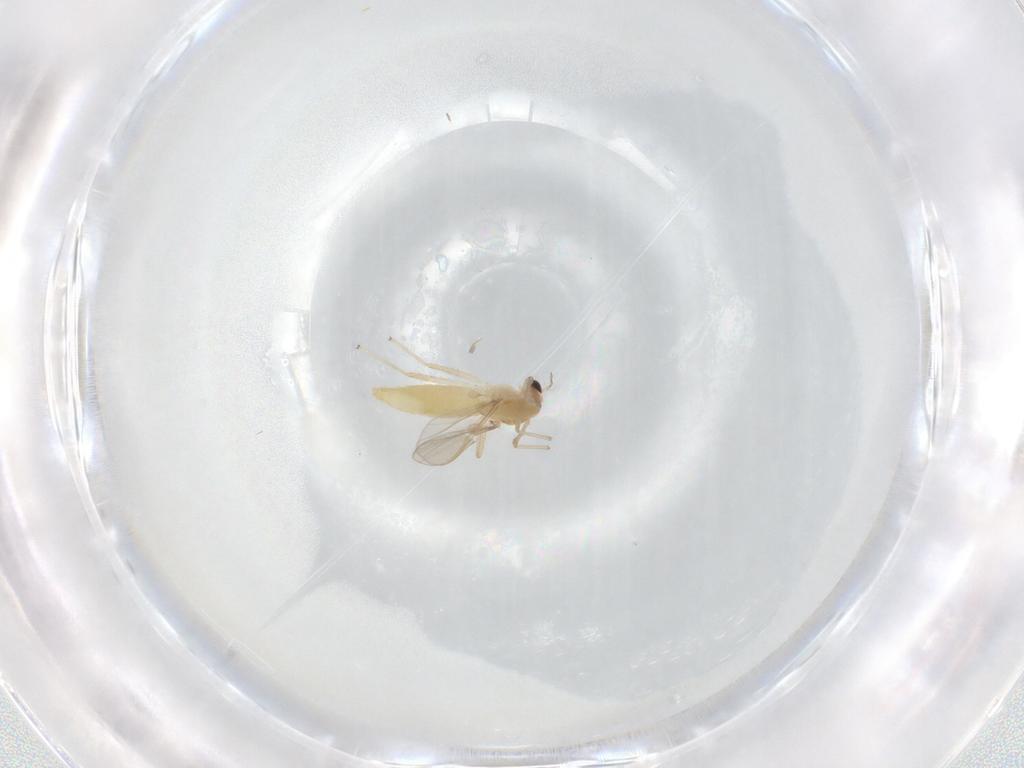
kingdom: Animalia
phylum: Arthropoda
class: Insecta
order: Diptera
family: Chironomidae
